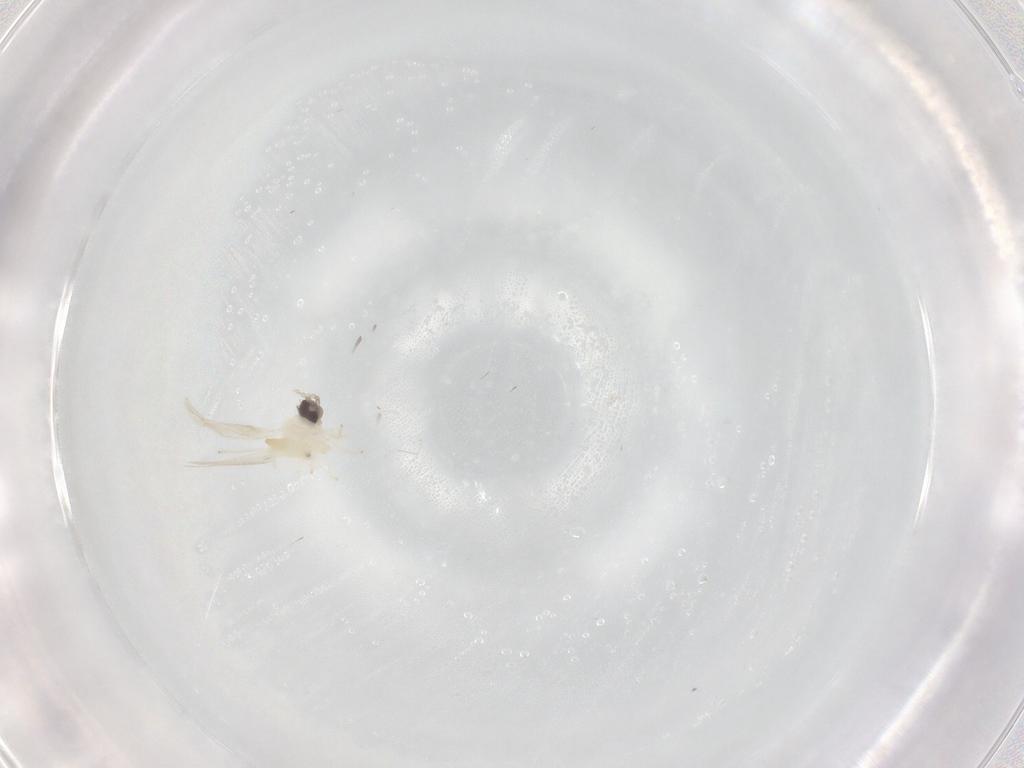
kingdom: Animalia
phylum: Arthropoda
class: Insecta
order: Diptera
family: Cecidomyiidae
